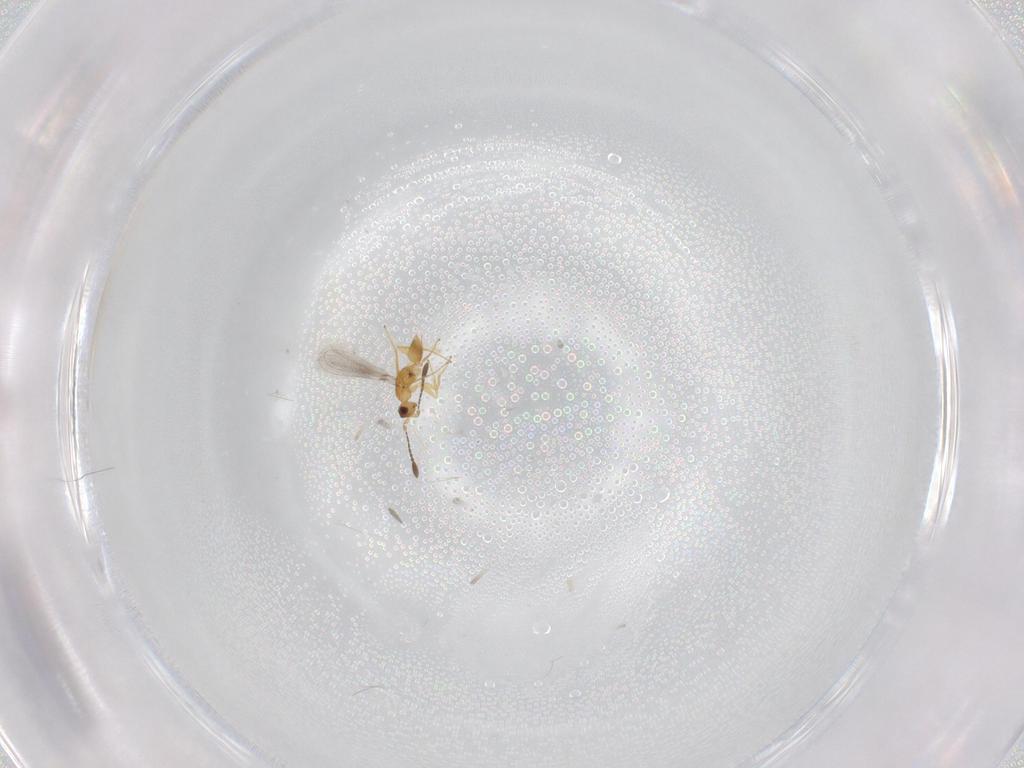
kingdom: Animalia
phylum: Arthropoda
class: Insecta
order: Hymenoptera
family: Mymaridae
